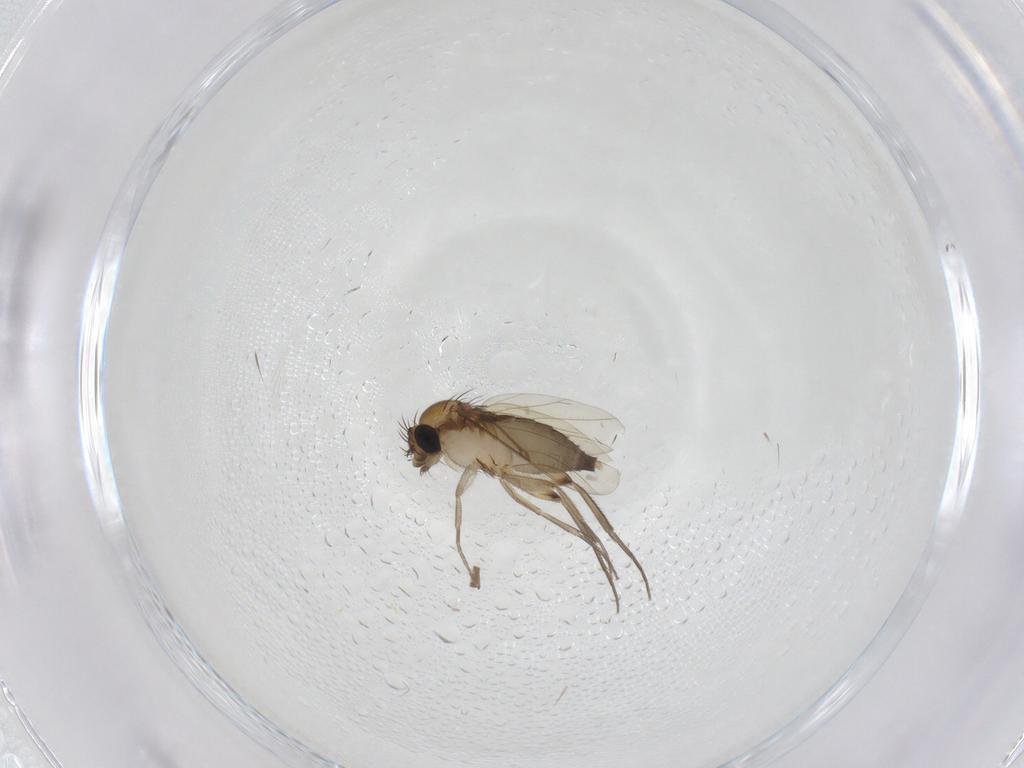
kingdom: Animalia
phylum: Arthropoda
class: Insecta
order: Diptera
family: Phoridae
